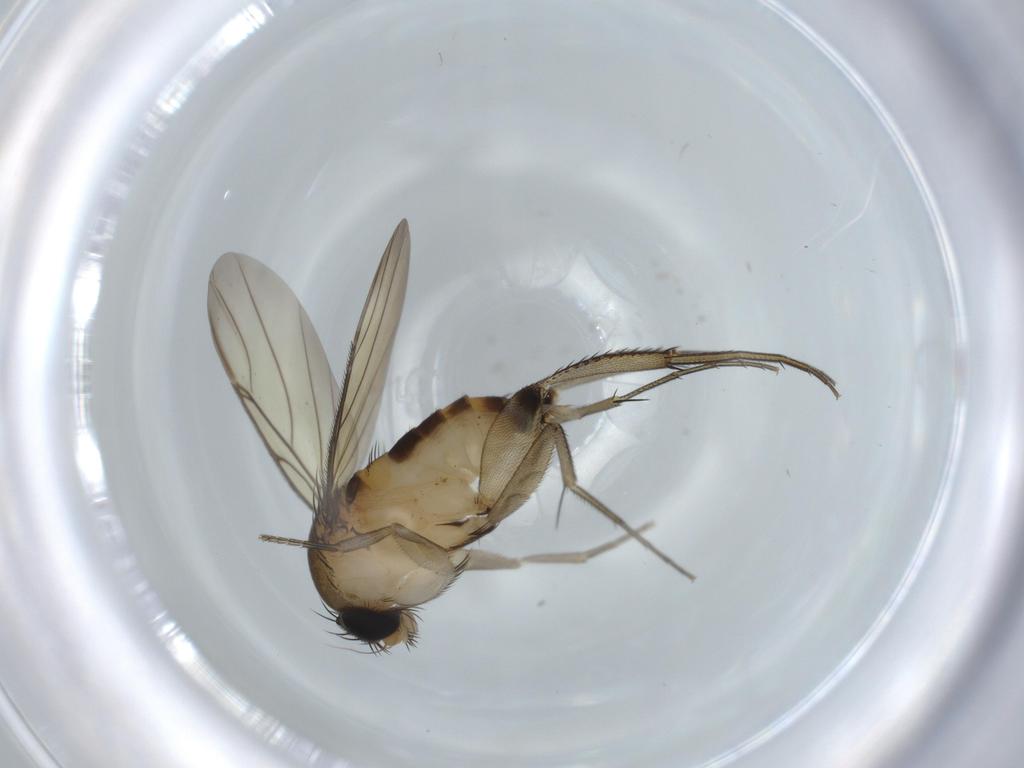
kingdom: Animalia
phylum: Arthropoda
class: Insecta
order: Diptera
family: Phoridae
